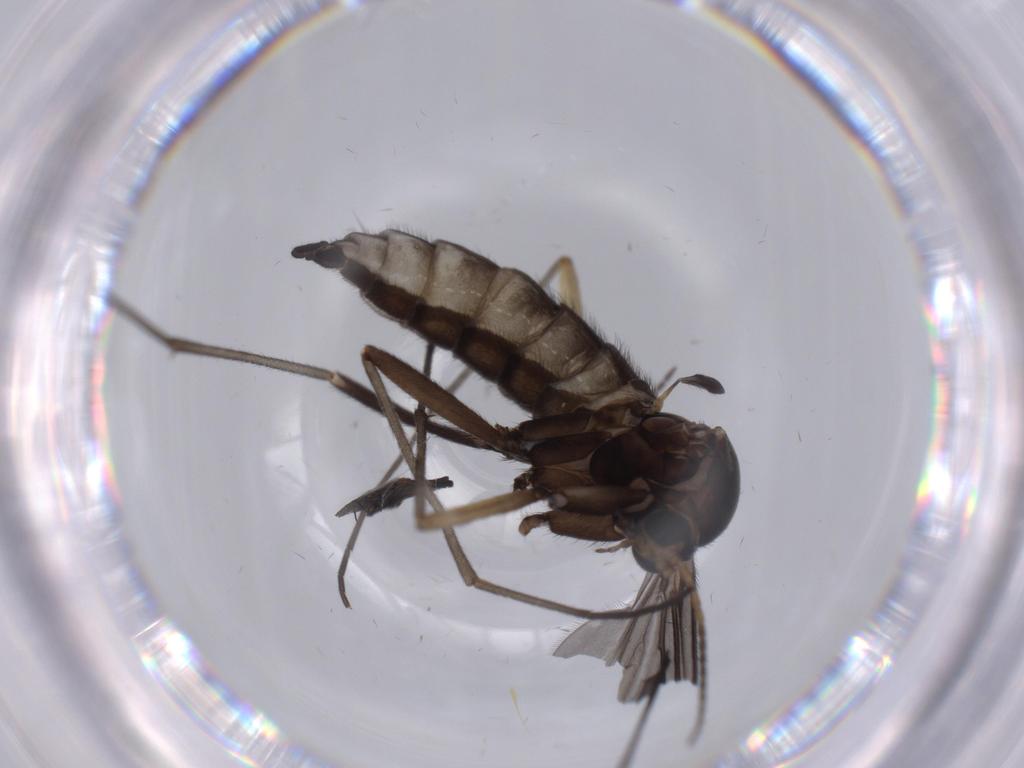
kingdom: Animalia
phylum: Arthropoda
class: Insecta
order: Diptera
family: Sciaridae
